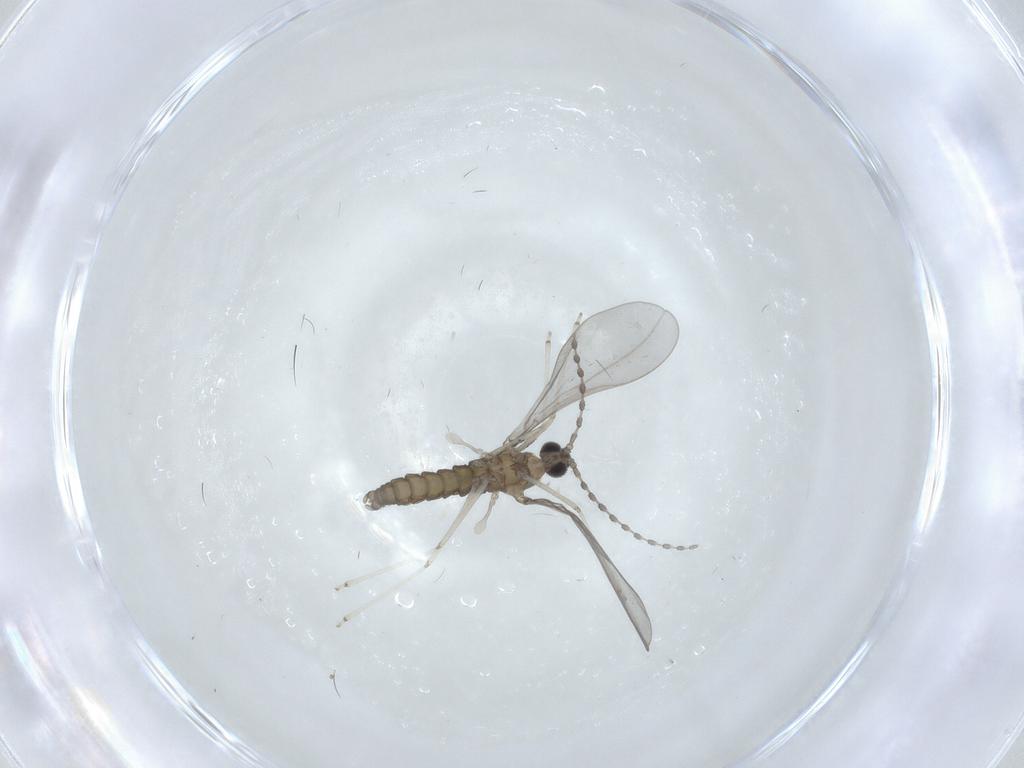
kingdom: Animalia
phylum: Arthropoda
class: Insecta
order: Diptera
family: Cecidomyiidae
